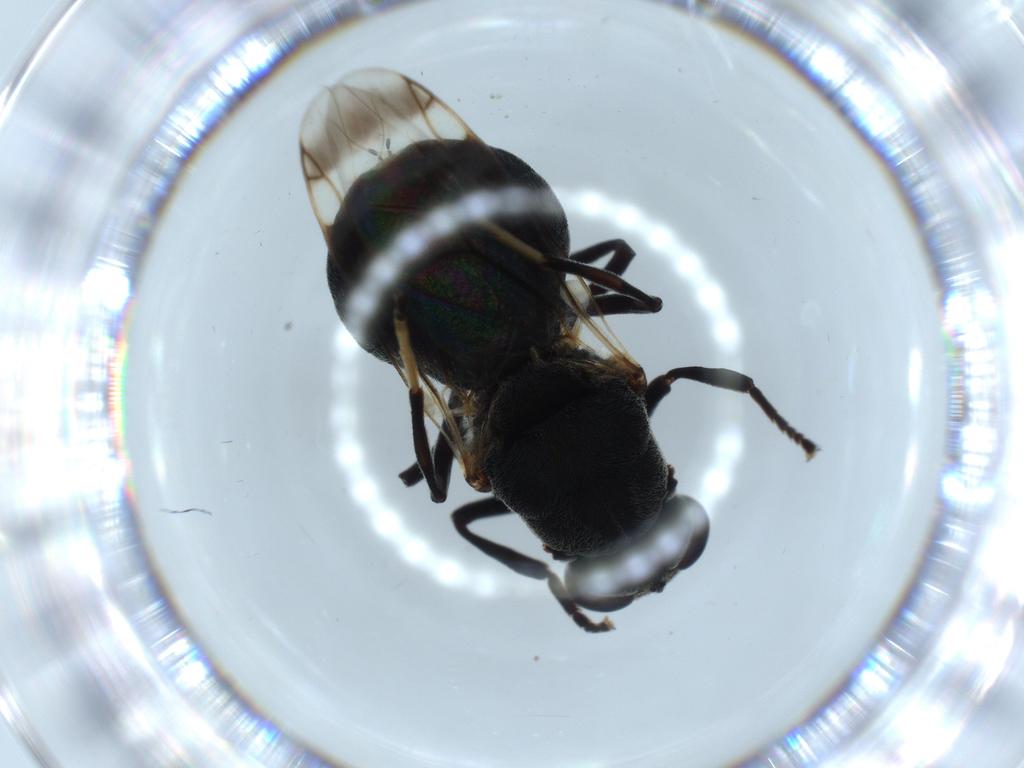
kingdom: Animalia
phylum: Arthropoda
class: Insecta
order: Diptera
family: Stratiomyidae
